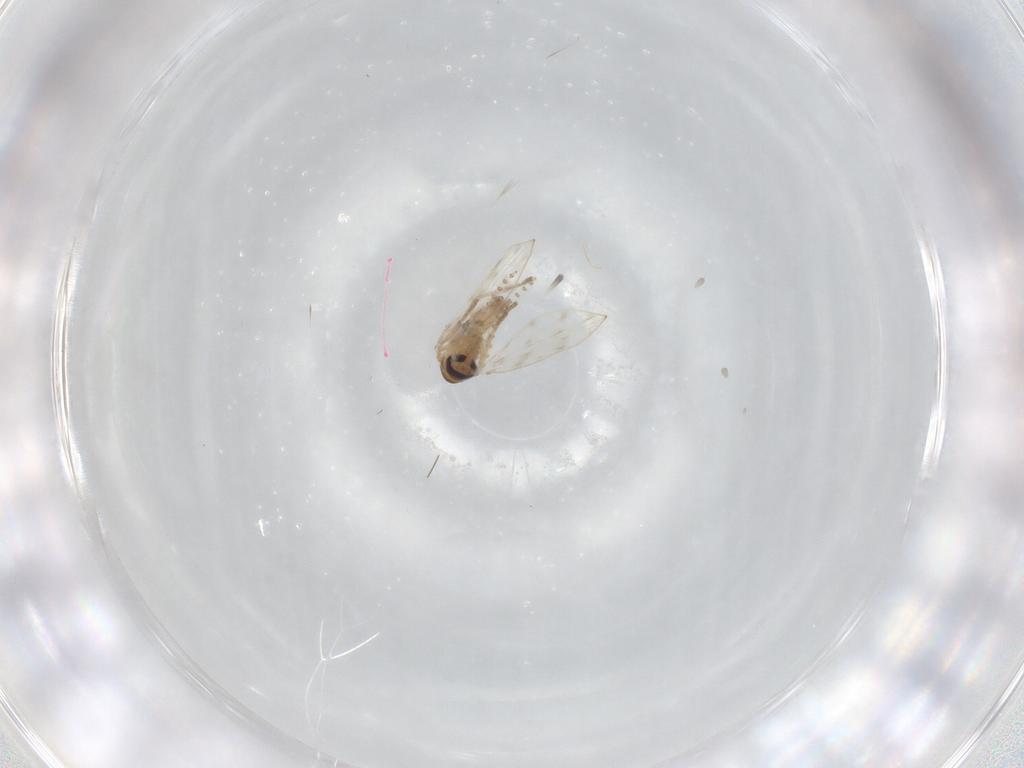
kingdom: Animalia
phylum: Arthropoda
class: Insecta
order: Diptera
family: Psychodidae
